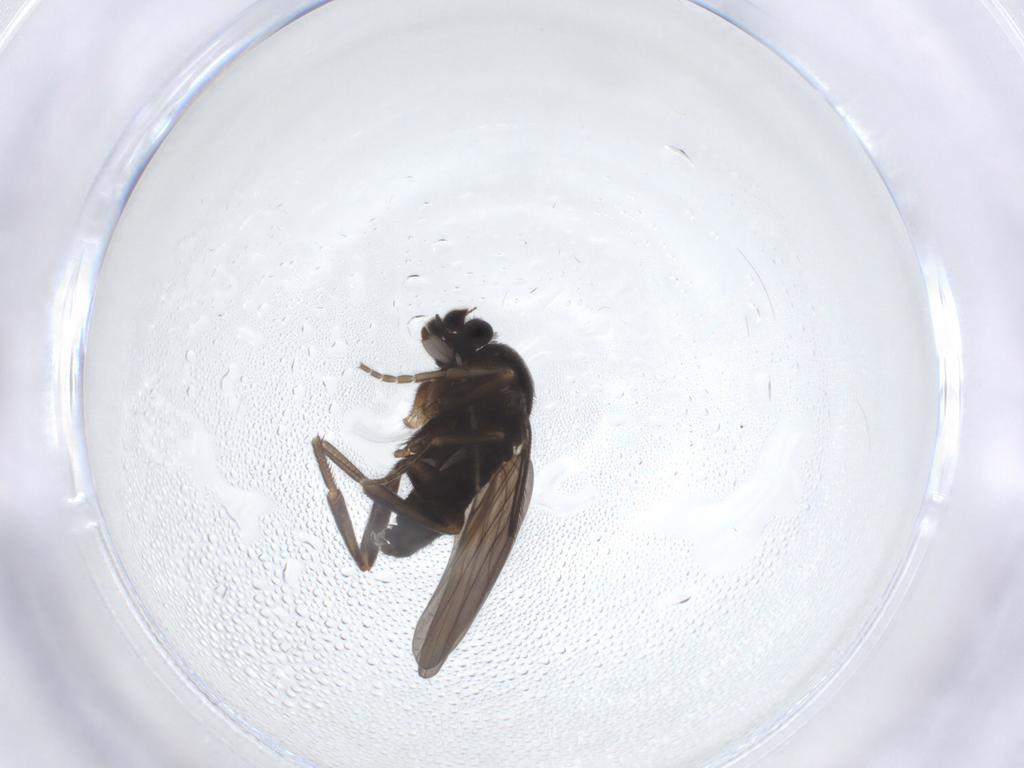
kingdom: Animalia
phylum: Arthropoda
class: Insecta
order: Diptera
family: Phoridae
